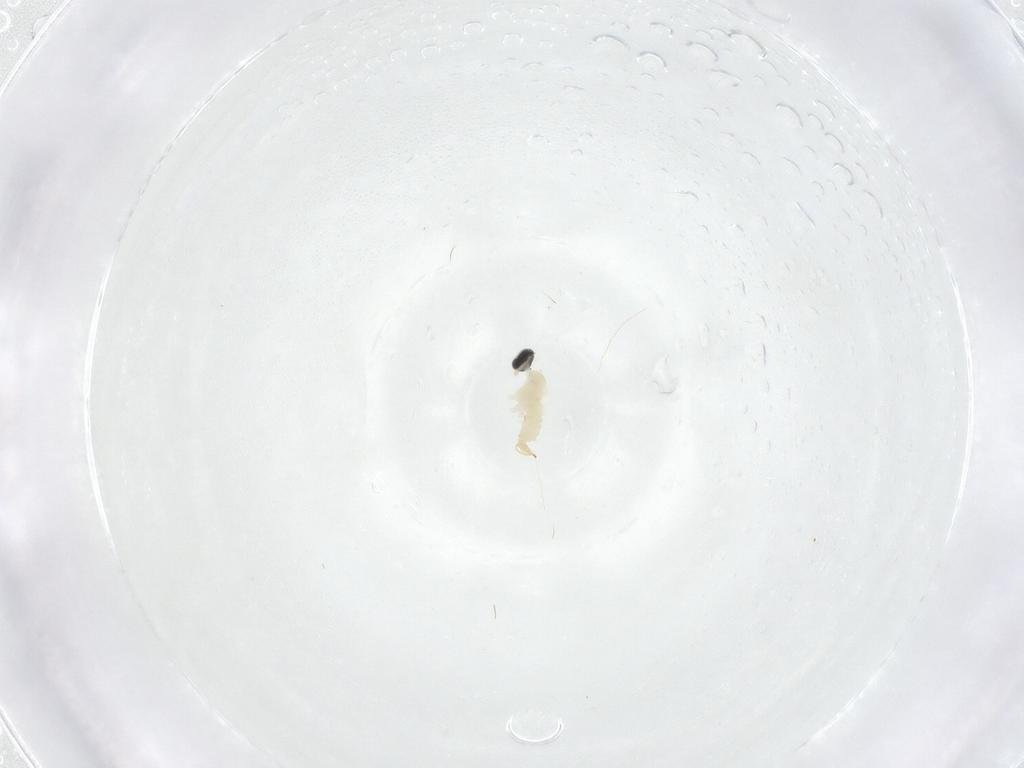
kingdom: Animalia
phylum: Arthropoda
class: Insecta
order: Diptera
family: Cecidomyiidae
